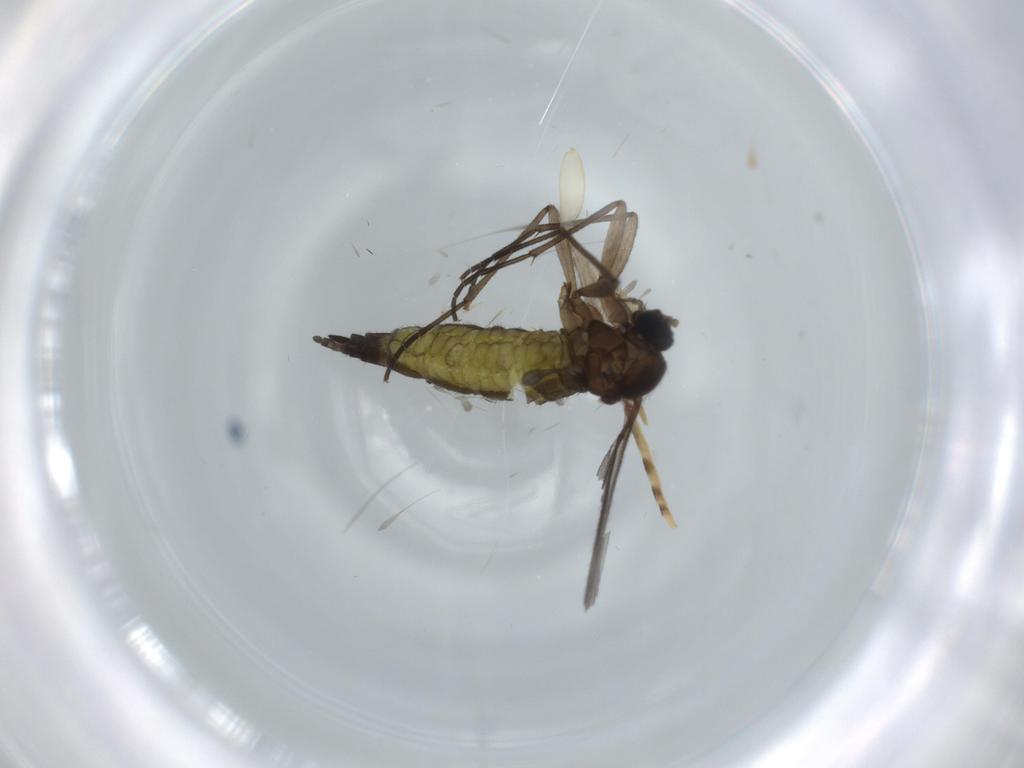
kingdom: Animalia
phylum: Arthropoda
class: Insecta
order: Diptera
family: Chironomidae
